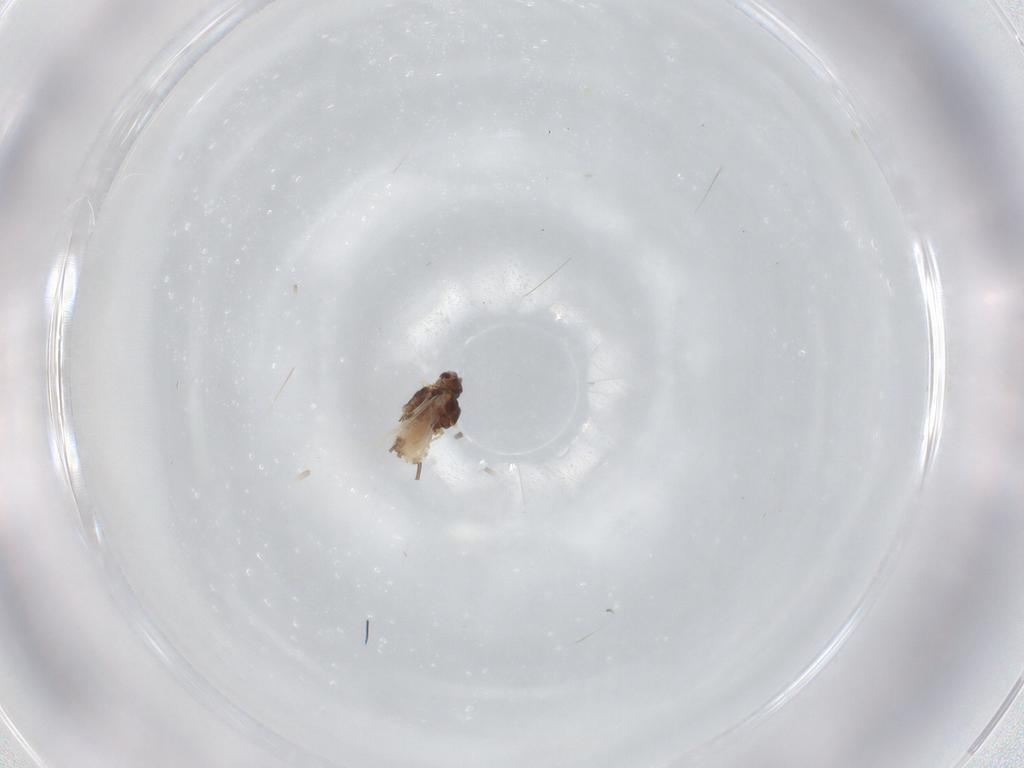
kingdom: Animalia
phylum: Arthropoda
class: Insecta
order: Hemiptera
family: Aphididae
